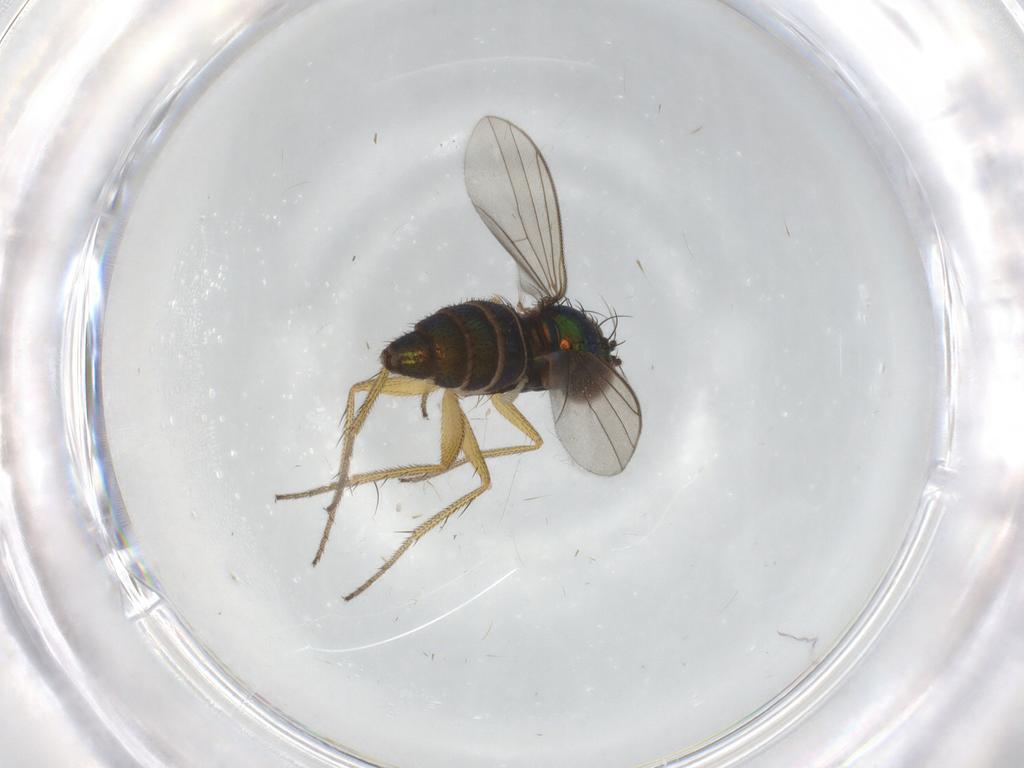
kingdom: Animalia
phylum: Arthropoda
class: Insecta
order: Diptera
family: Dolichopodidae
